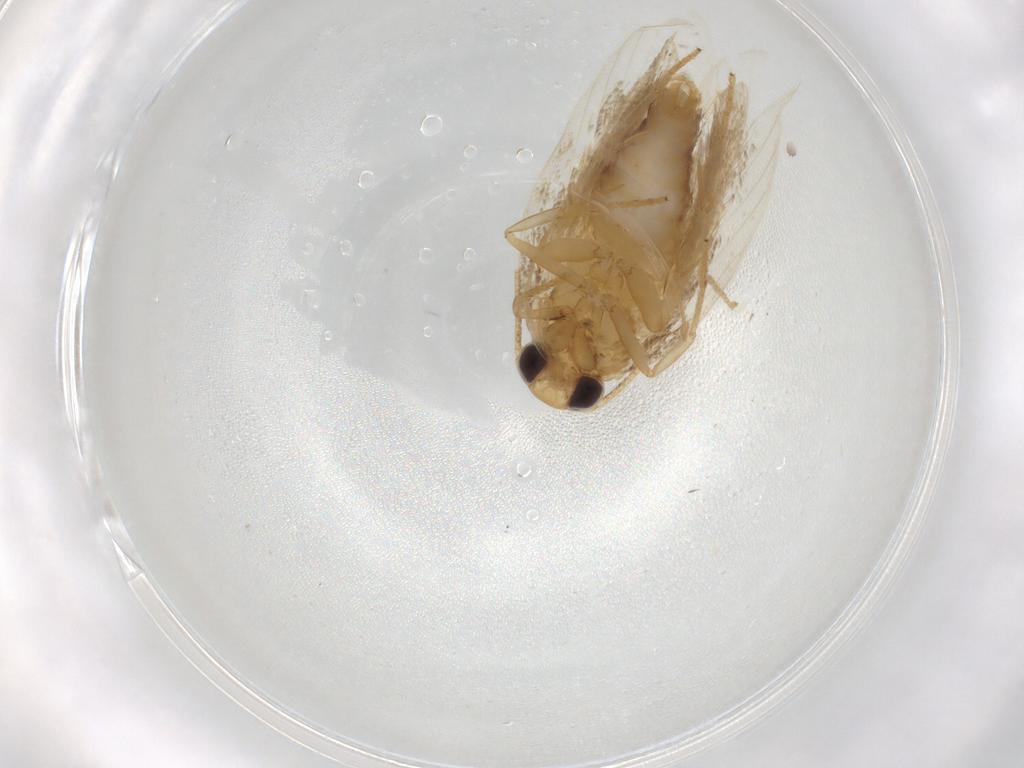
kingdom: Animalia
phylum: Arthropoda
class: Insecta
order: Lepidoptera
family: Depressariidae
